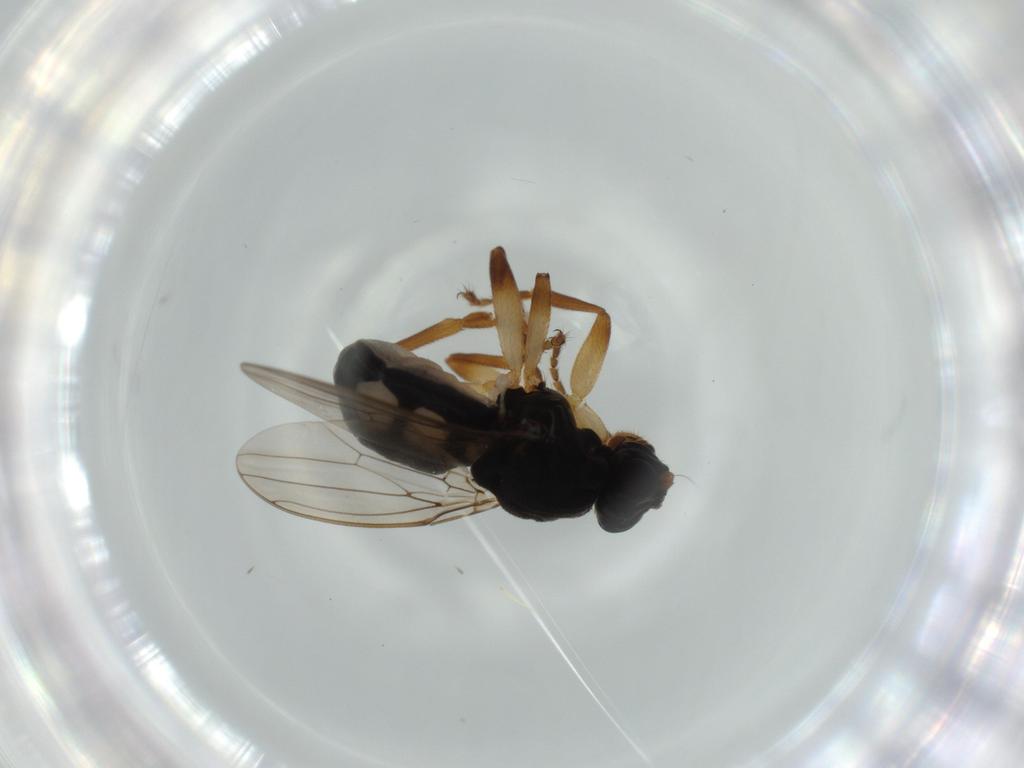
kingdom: Animalia
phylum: Arthropoda
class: Insecta
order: Diptera
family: Sphaeroceridae
